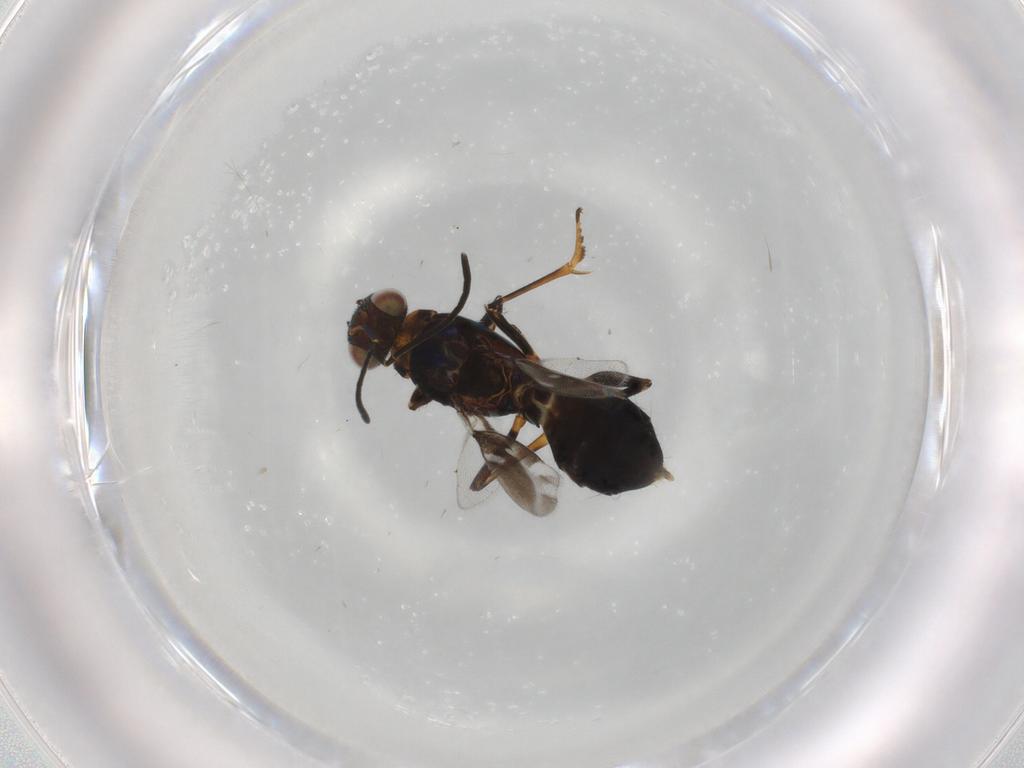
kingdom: Animalia
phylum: Arthropoda
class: Insecta
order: Hymenoptera
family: Eupelmidae
